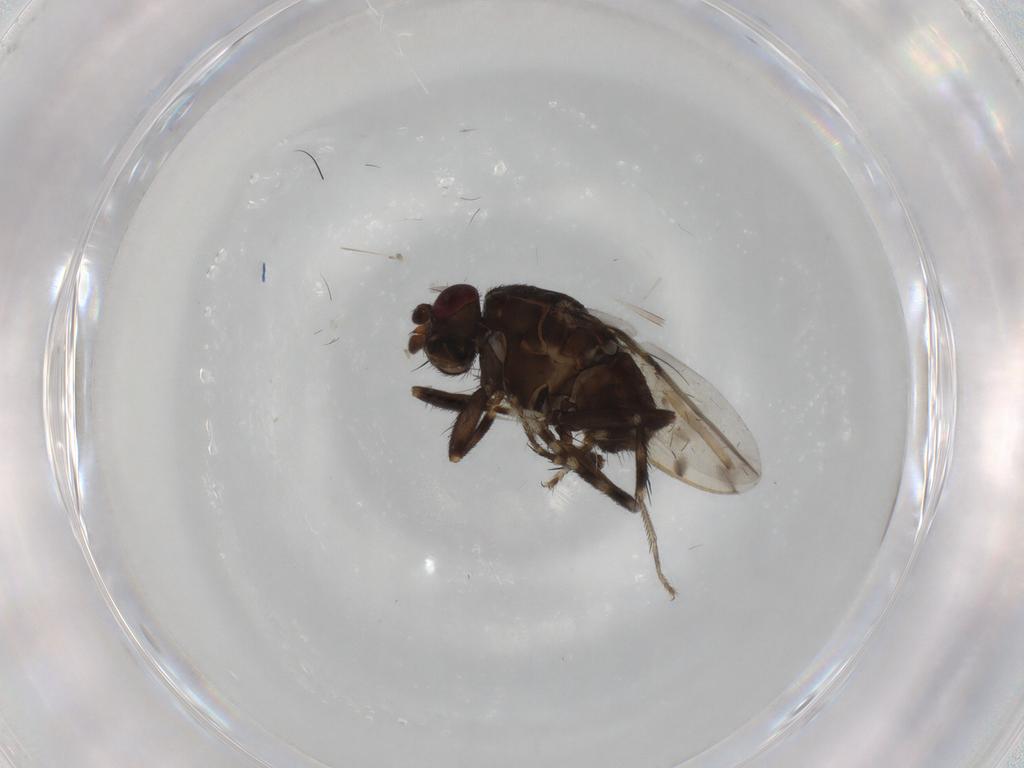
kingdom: Animalia
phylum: Arthropoda
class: Insecta
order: Diptera
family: Sphaeroceridae
